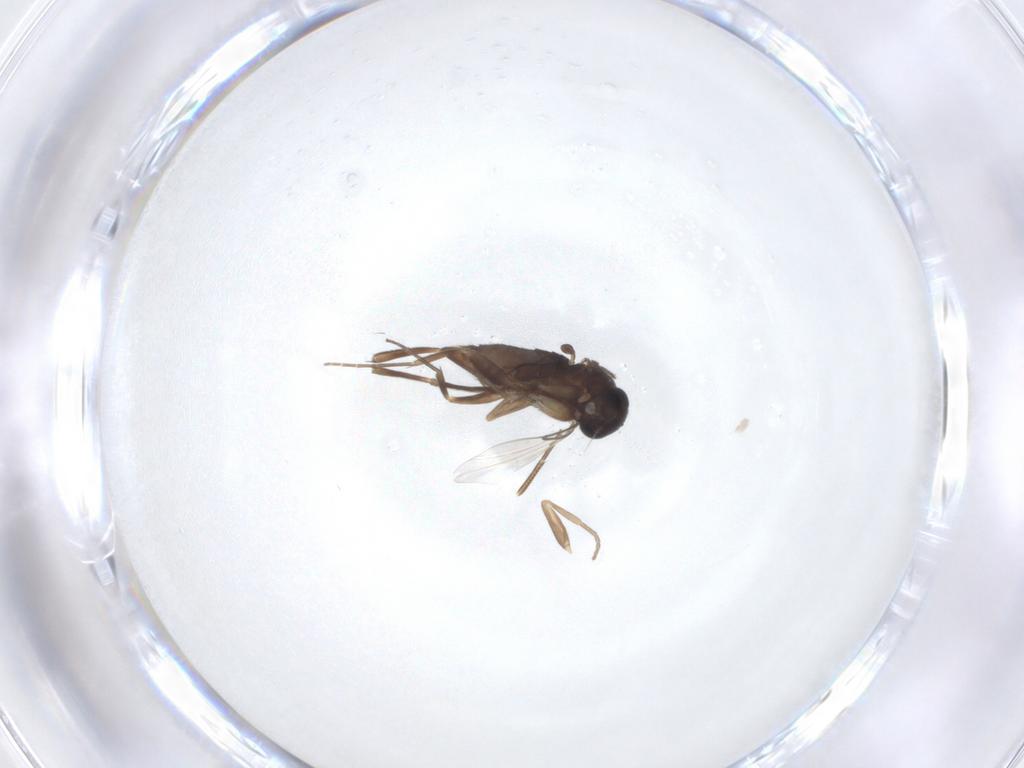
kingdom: Animalia
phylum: Arthropoda
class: Insecta
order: Diptera
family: Phoridae
